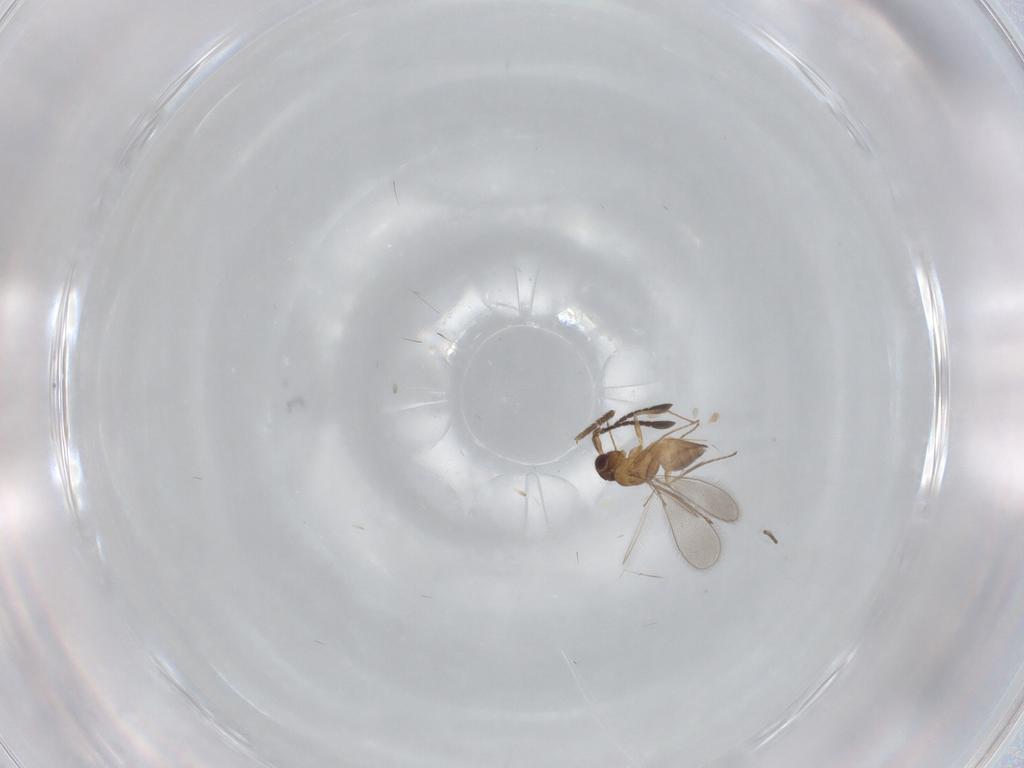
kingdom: Animalia
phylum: Arthropoda
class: Insecta
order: Hymenoptera
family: Mymaridae
